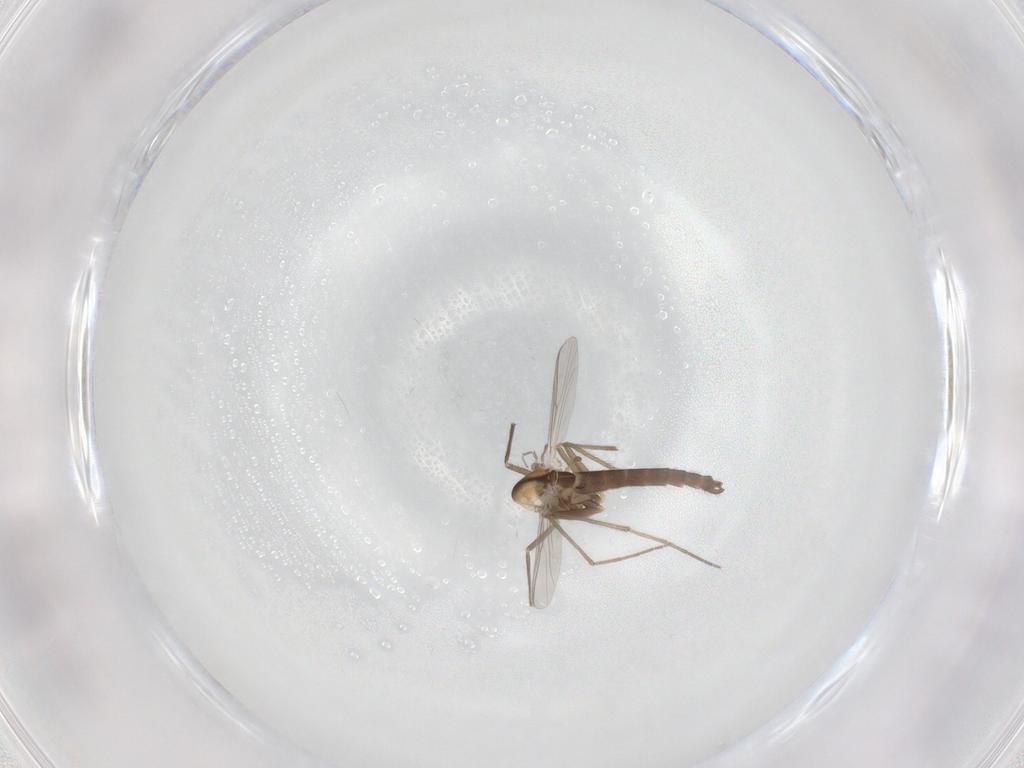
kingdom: Animalia
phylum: Arthropoda
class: Insecta
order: Diptera
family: Chironomidae
